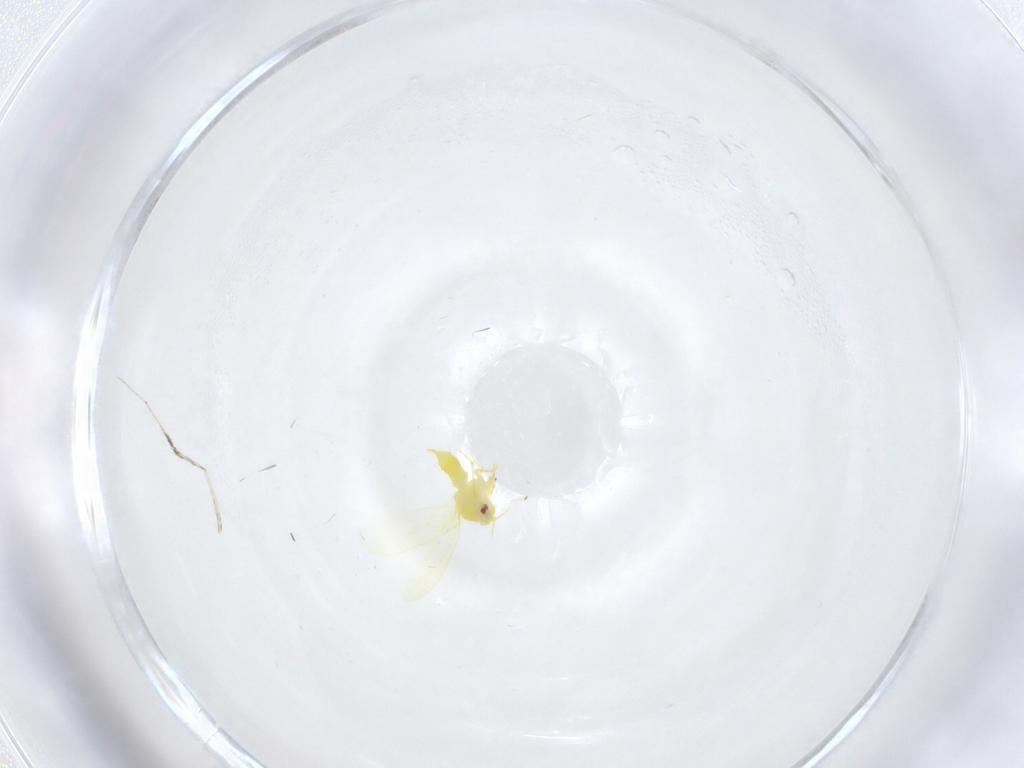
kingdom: Animalia
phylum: Arthropoda
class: Insecta
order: Hemiptera
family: Aleyrodidae
